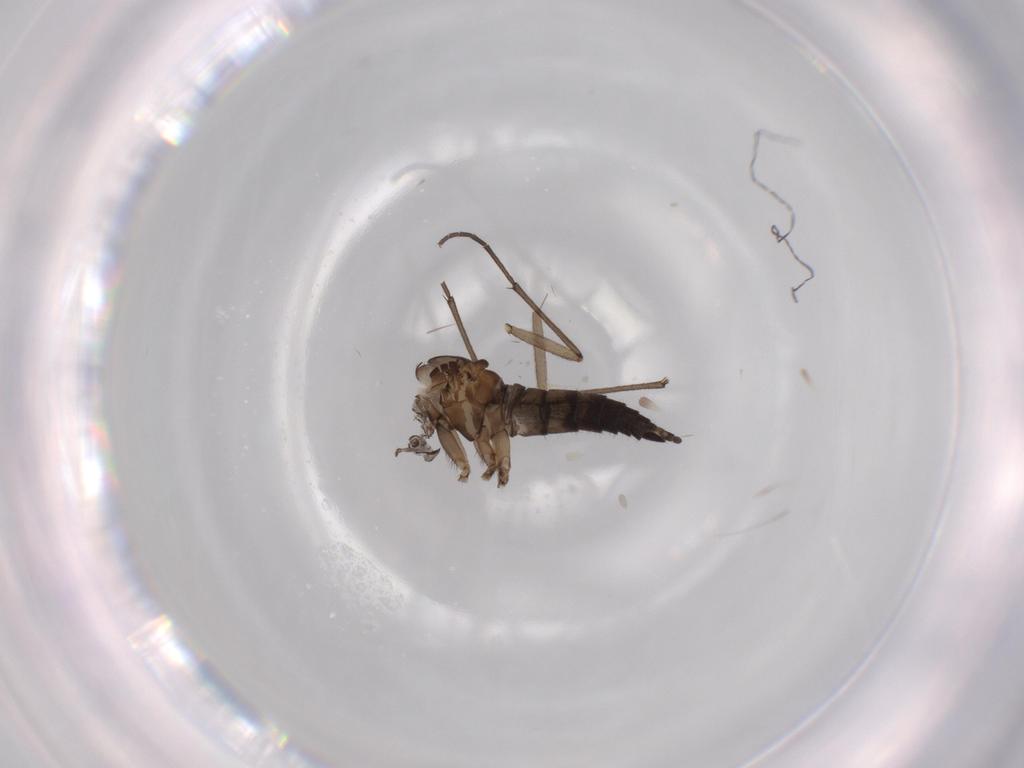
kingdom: Animalia
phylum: Arthropoda
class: Insecta
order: Diptera
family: Sciaridae
